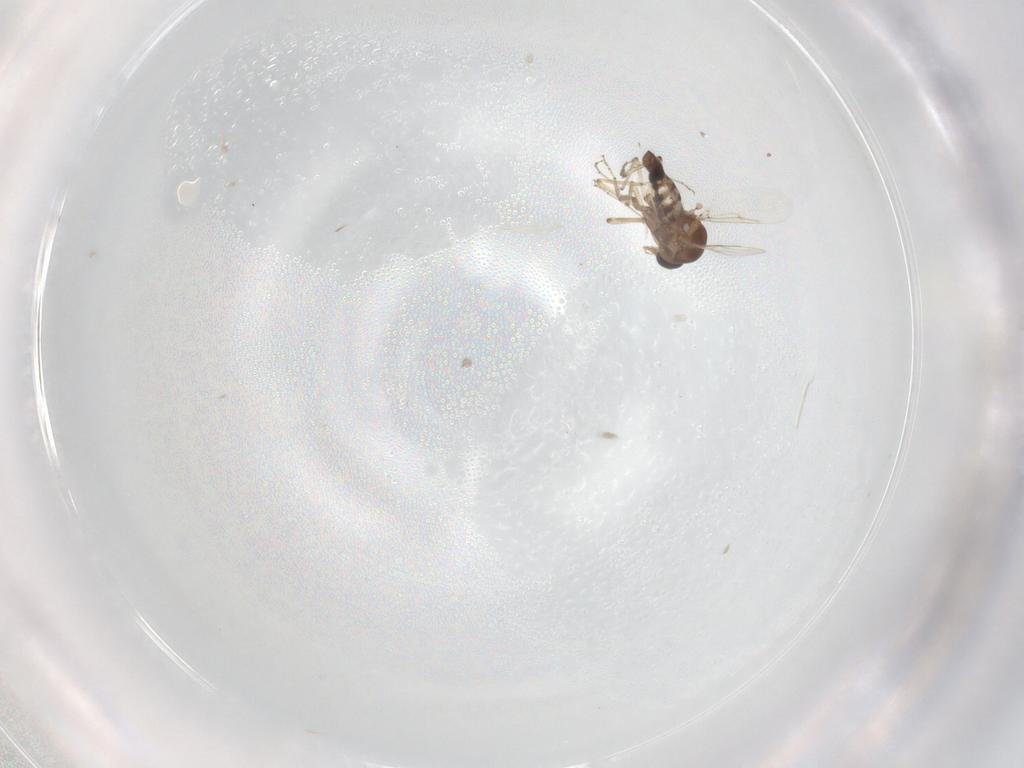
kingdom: Animalia
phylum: Arthropoda
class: Insecta
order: Diptera
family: Ceratopogonidae
